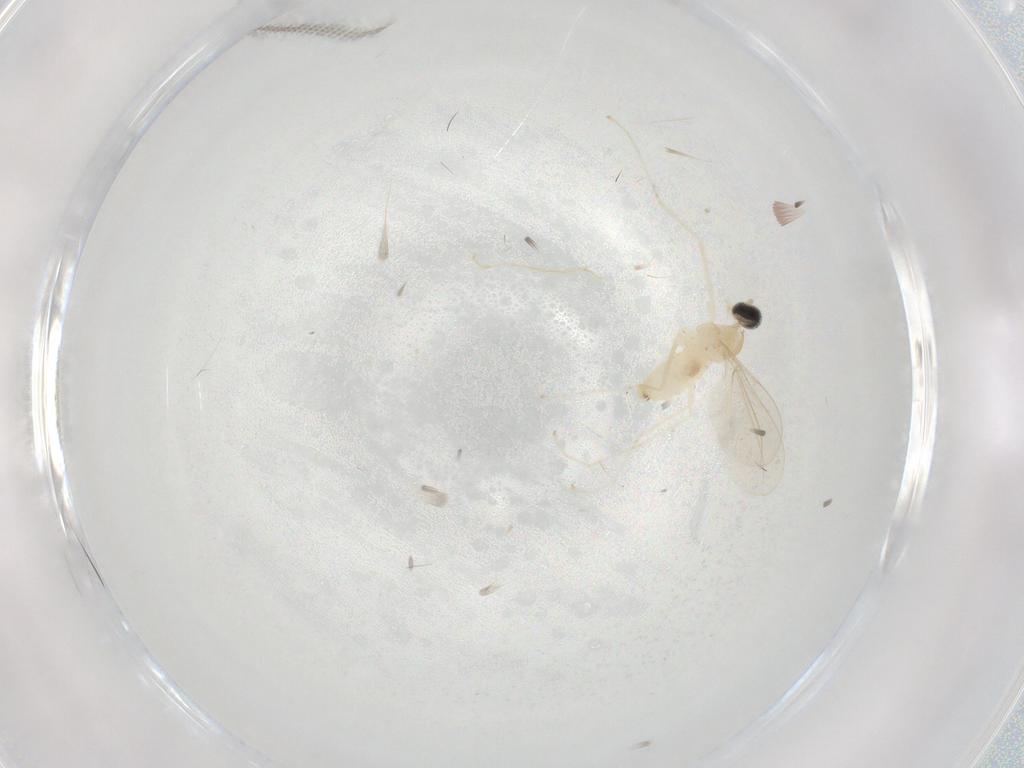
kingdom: Animalia
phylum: Arthropoda
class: Insecta
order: Diptera
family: Cecidomyiidae
